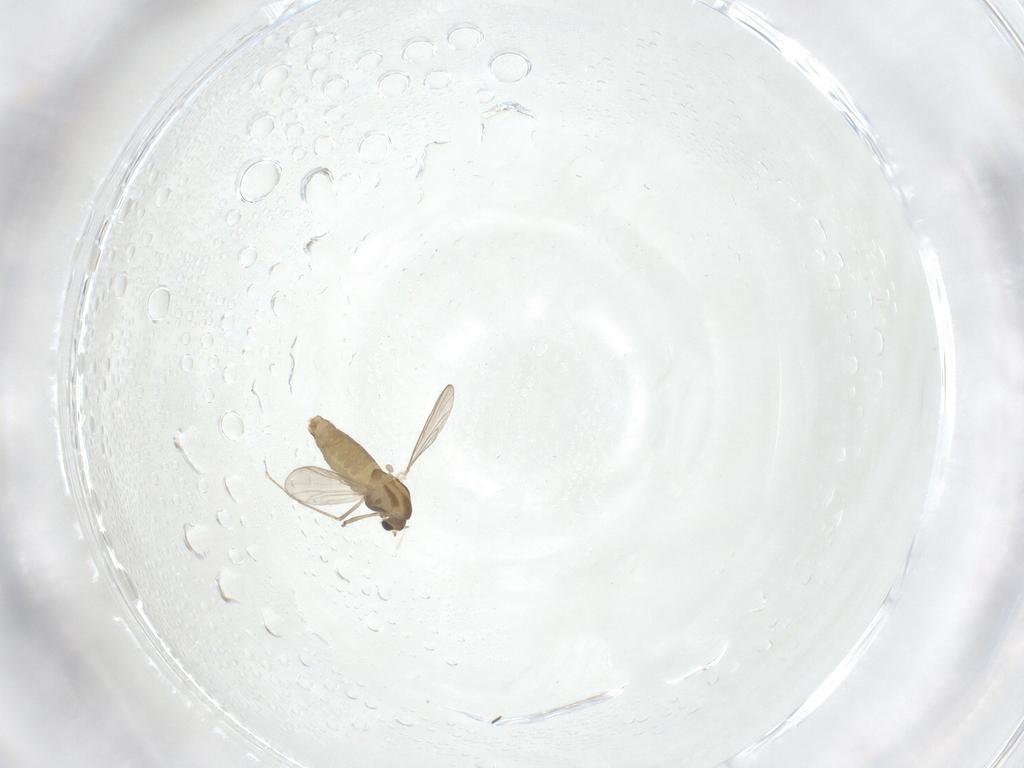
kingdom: Animalia
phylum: Arthropoda
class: Insecta
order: Diptera
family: Chironomidae
